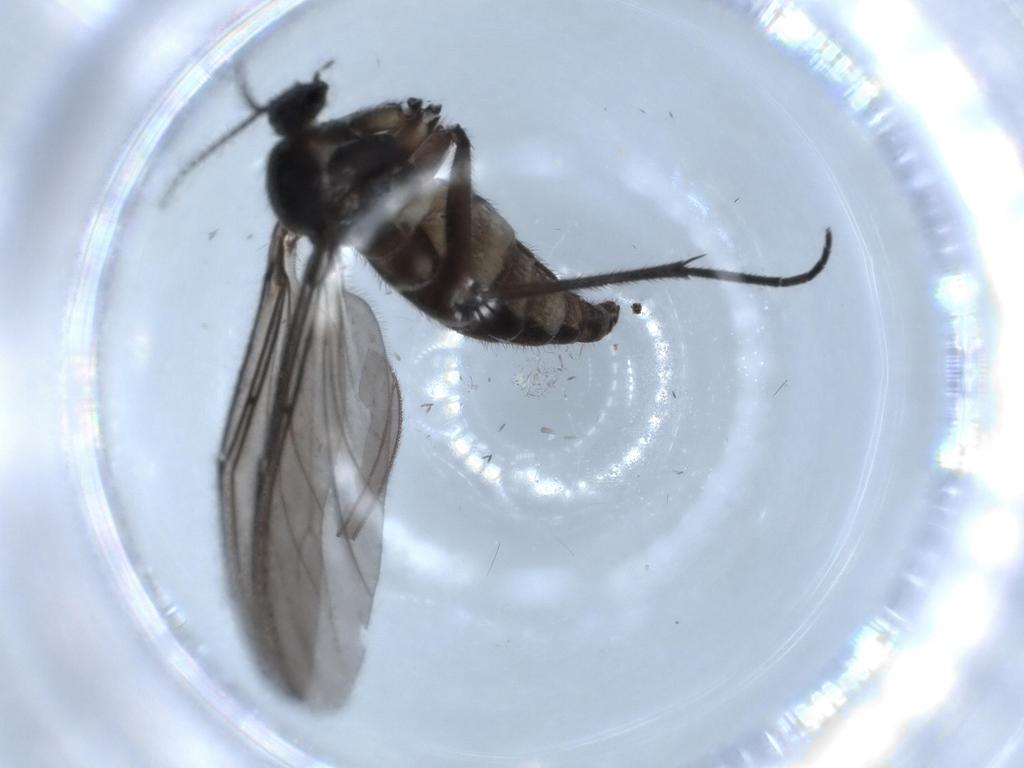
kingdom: Animalia
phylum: Arthropoda
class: Insecta
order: Diptera
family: Sciaridae
